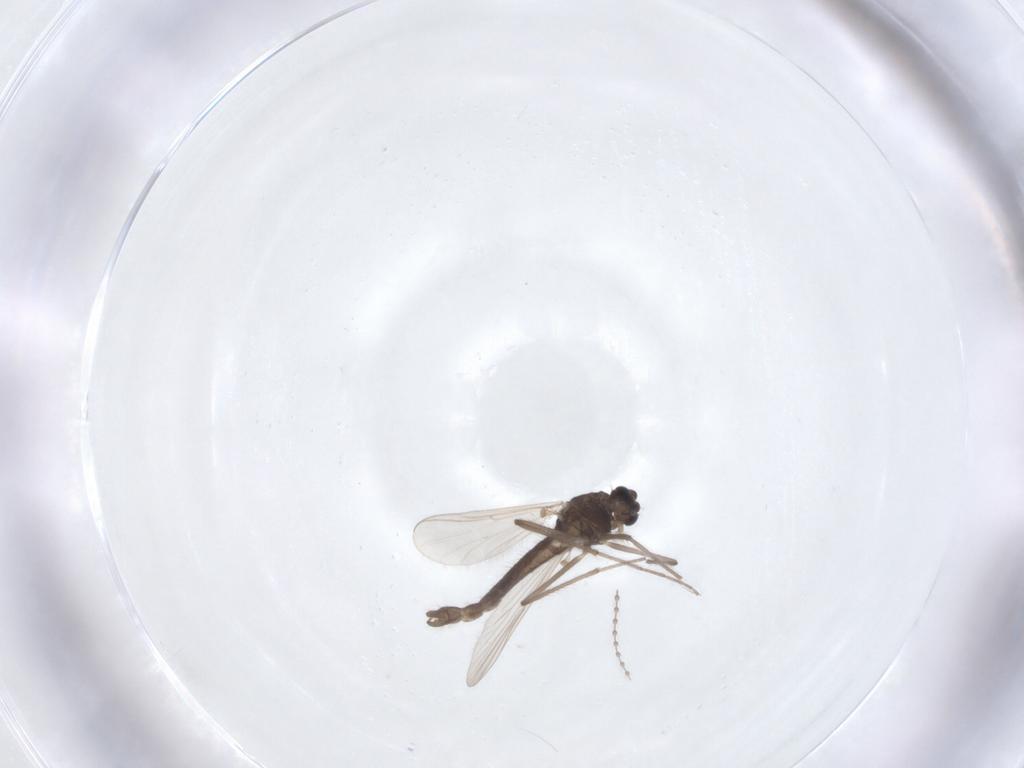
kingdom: Animalia
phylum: Arthropoda
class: Insecta
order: Diptera
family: Chironomidae
